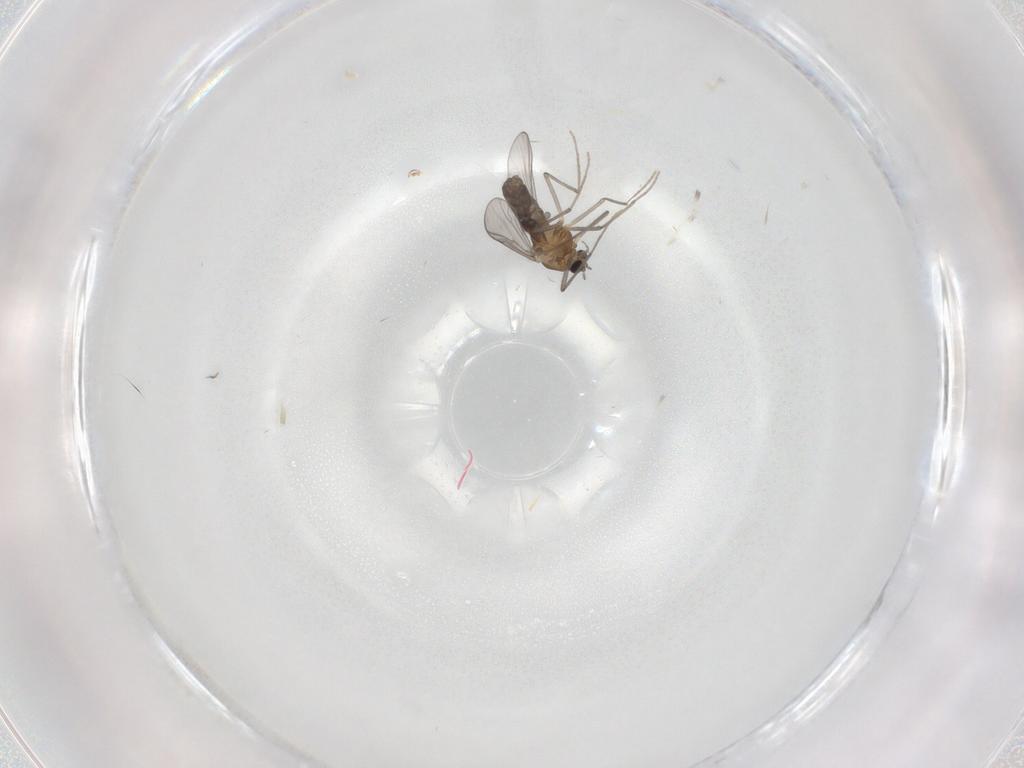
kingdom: Animalia
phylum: Arthropoda
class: Insecta
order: Diptera
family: Chironomidae
